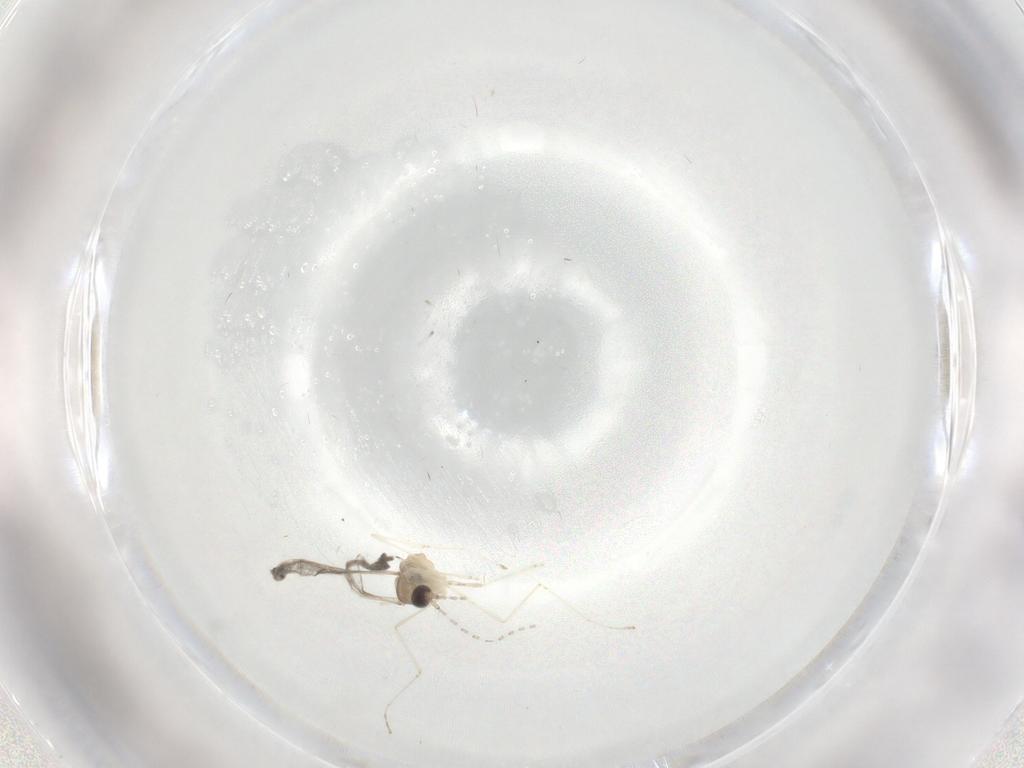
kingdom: Animalia
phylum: Arthropoda
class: Insecta
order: Diptera
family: Cecidomyiidae
